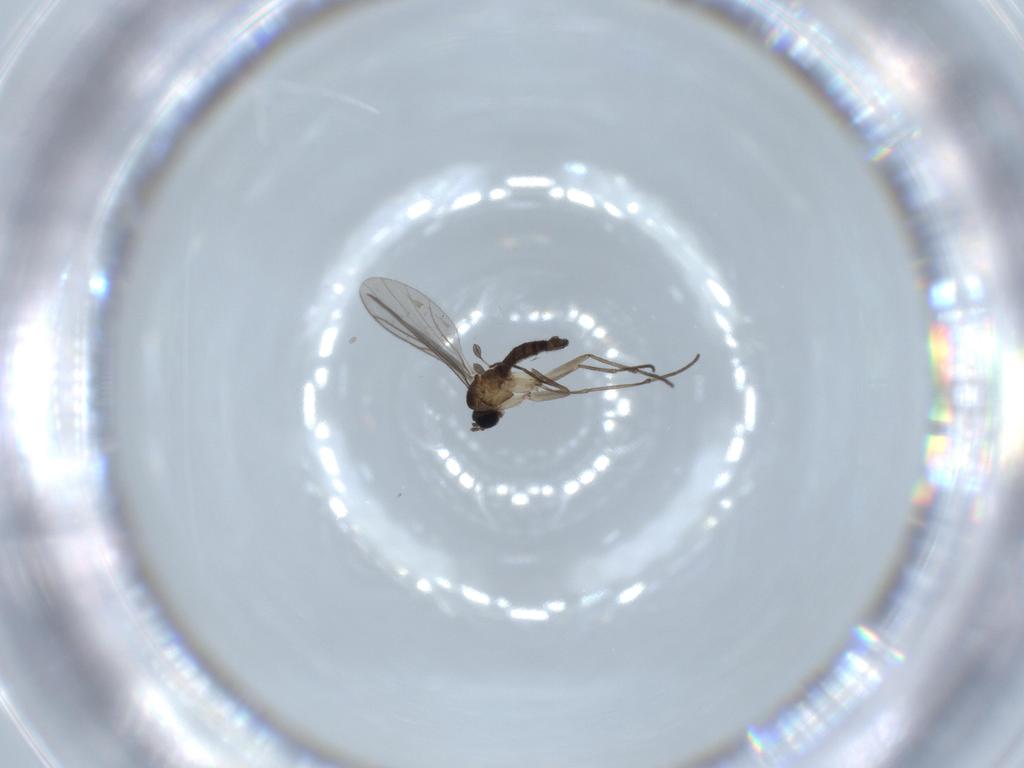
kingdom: Animalia
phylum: Arthropoda
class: Insecta
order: Diptera
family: Sciaridae
